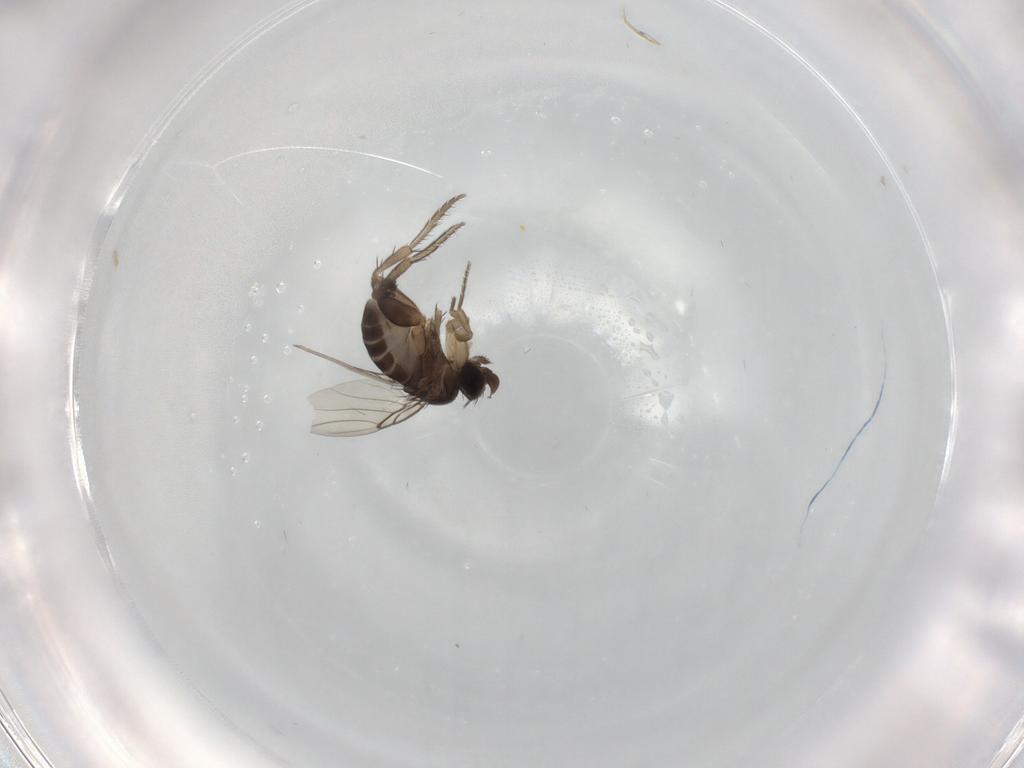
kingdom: Animalia
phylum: Arthropoda
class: Insecta
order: Diptera
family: Phoridae
